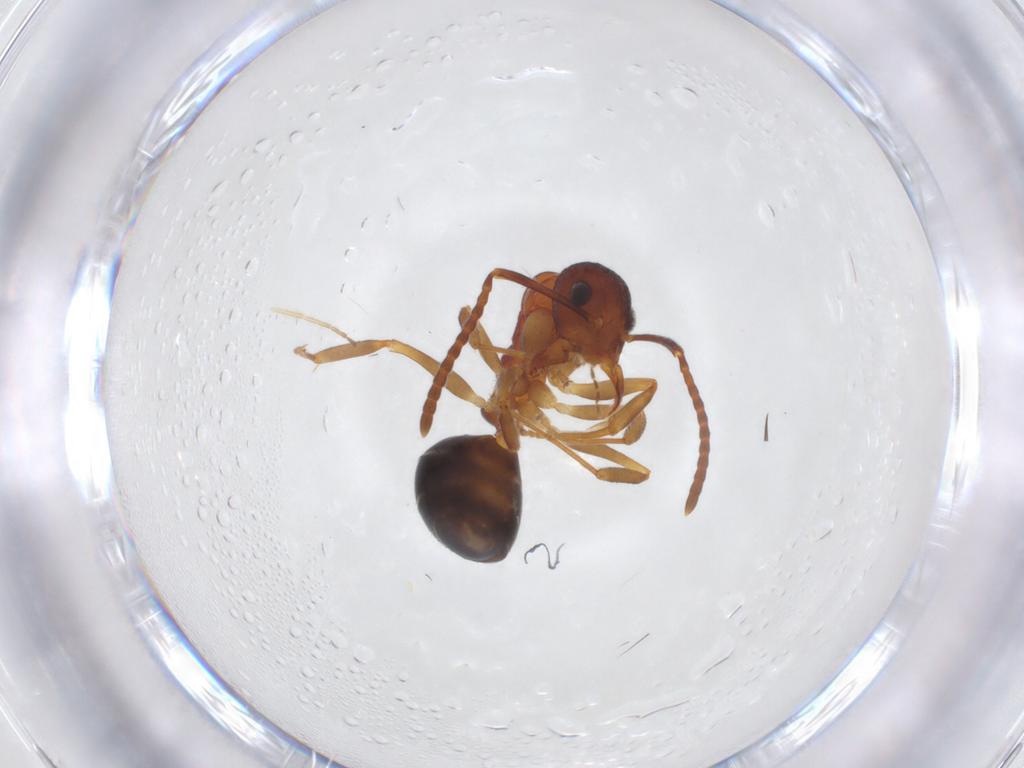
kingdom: Animalia
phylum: Arthropoda
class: Insecta
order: Hymenoptera
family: Formicidae
